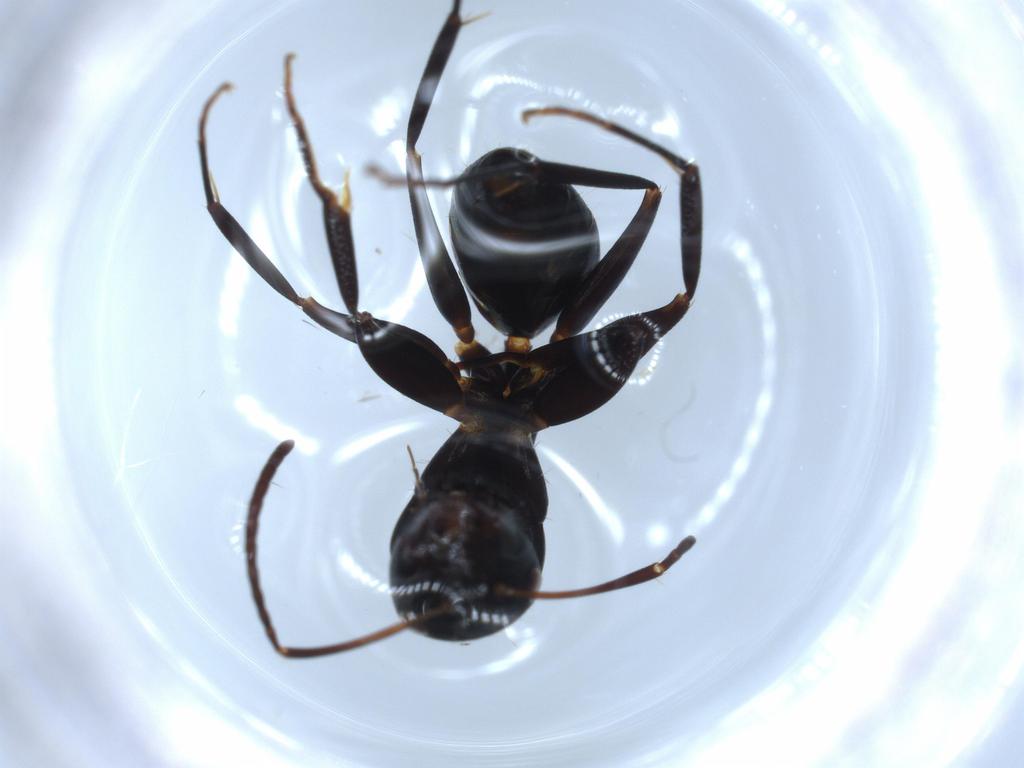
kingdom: Animalia
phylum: Arthropoda
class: Insecta
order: Hymenoptera
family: Formicidae
